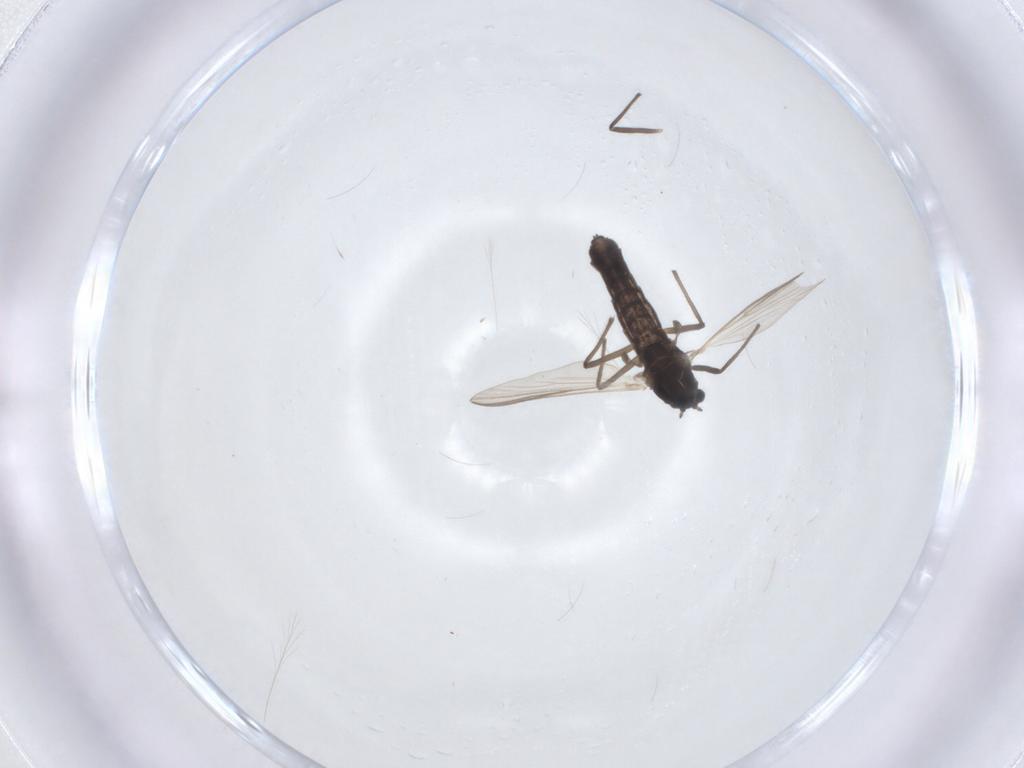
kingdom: Animalia
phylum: Arthropoda
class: Insecta
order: Diptera
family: Chironomidae
